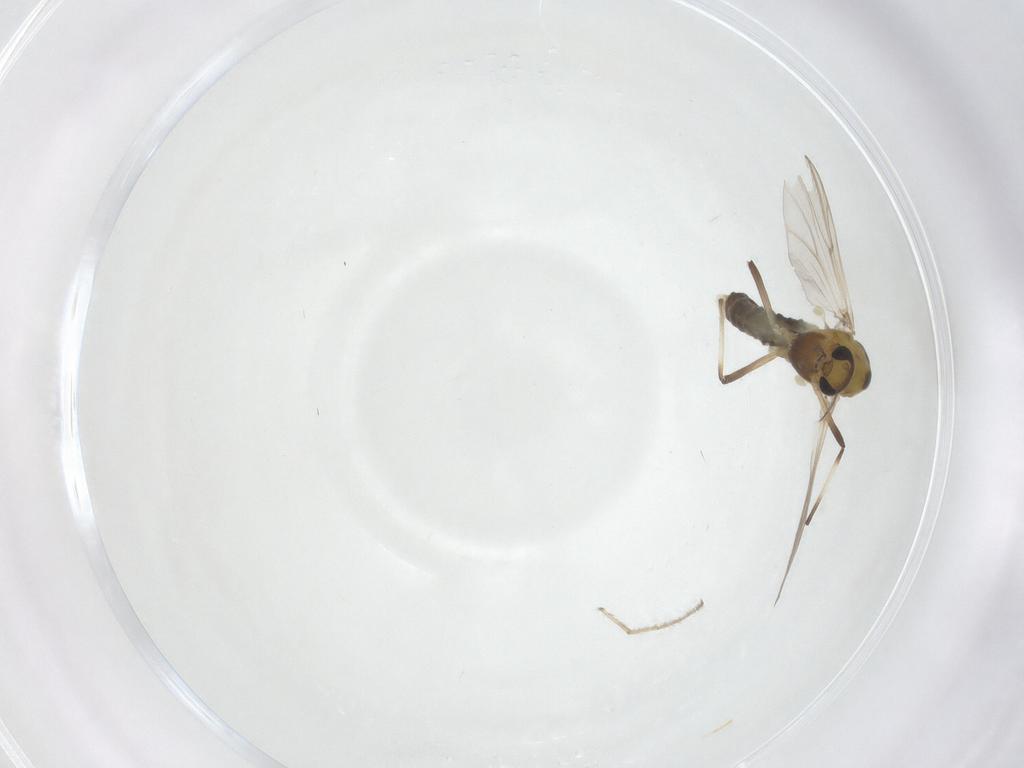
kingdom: Animalia
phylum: Arthropoda
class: Insecta
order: Diptera
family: Chironomidae
